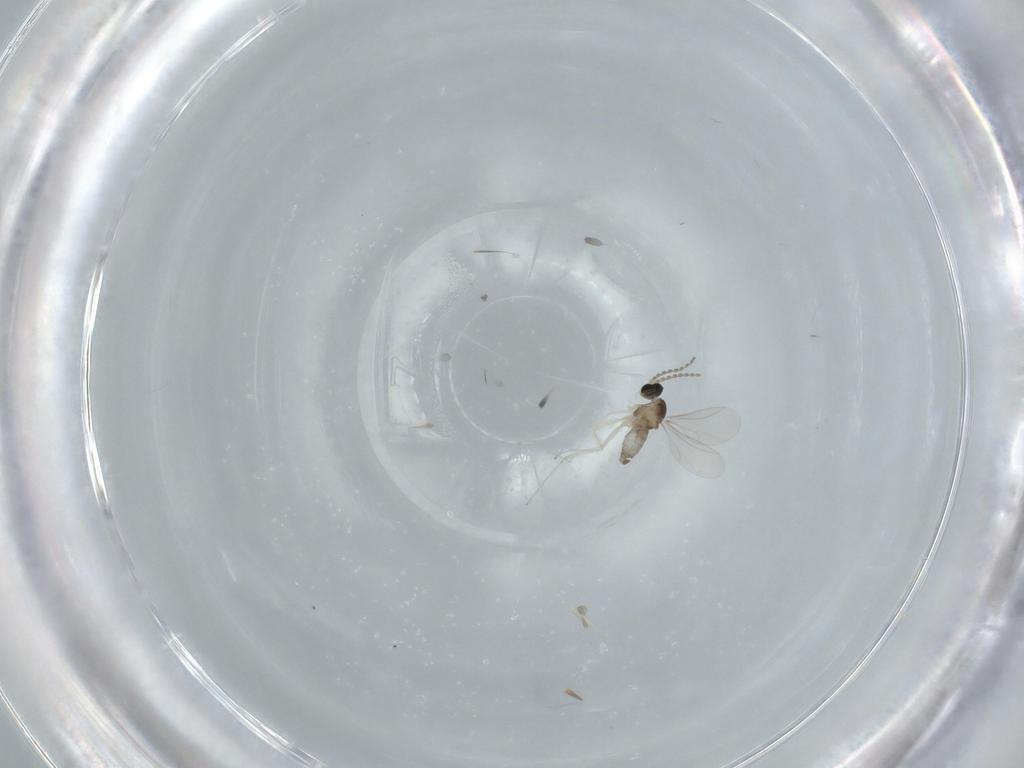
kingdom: Animalia
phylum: Arthropoda
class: Insecta
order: Diptera
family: Milichiidae
